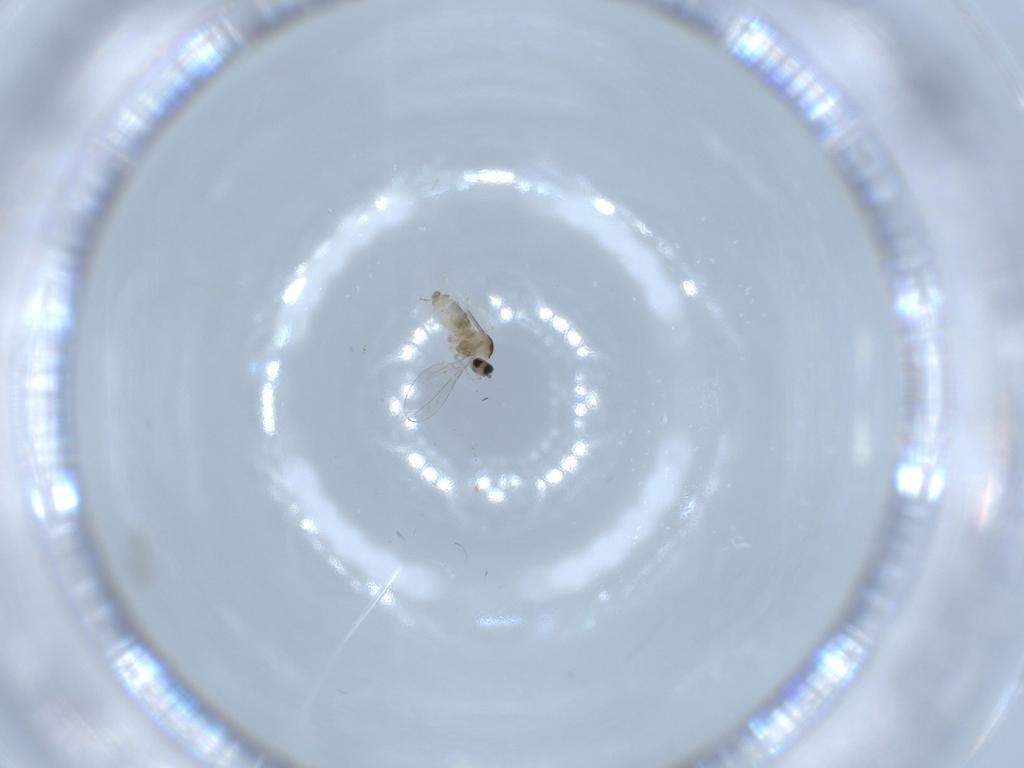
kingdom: Animalia
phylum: Arthropoda
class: Insecta
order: Diptera
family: Cecidomyiidae
